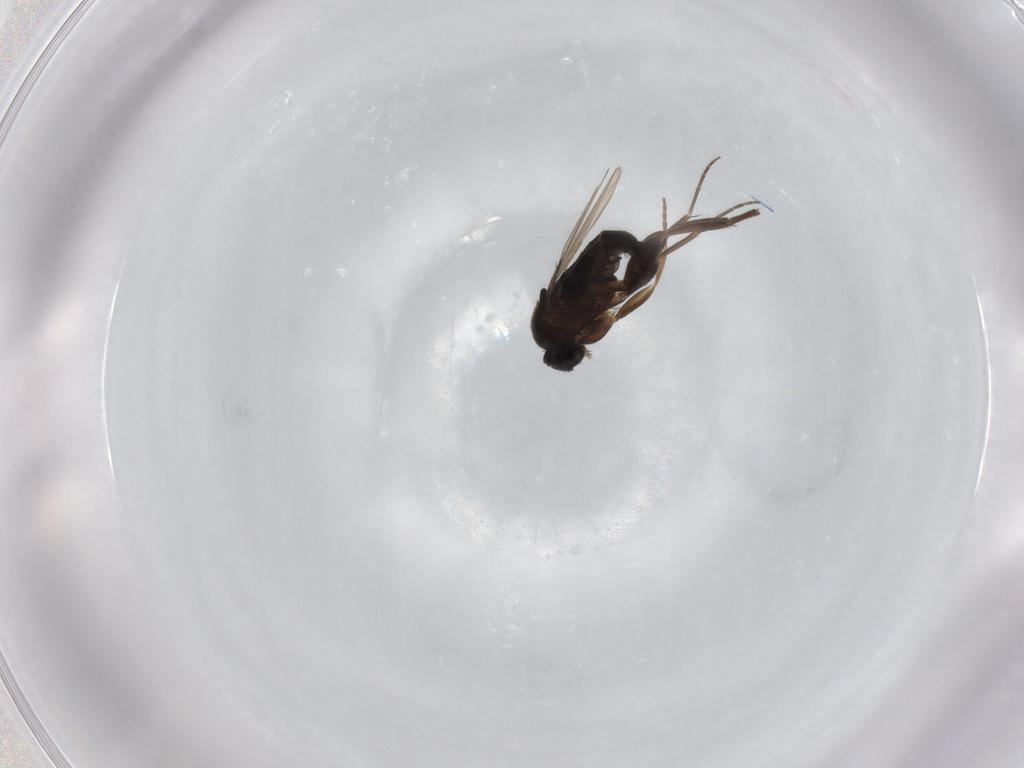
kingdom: Animalia
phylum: Arthropoda
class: Insecta
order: Diptera
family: Phoridae
